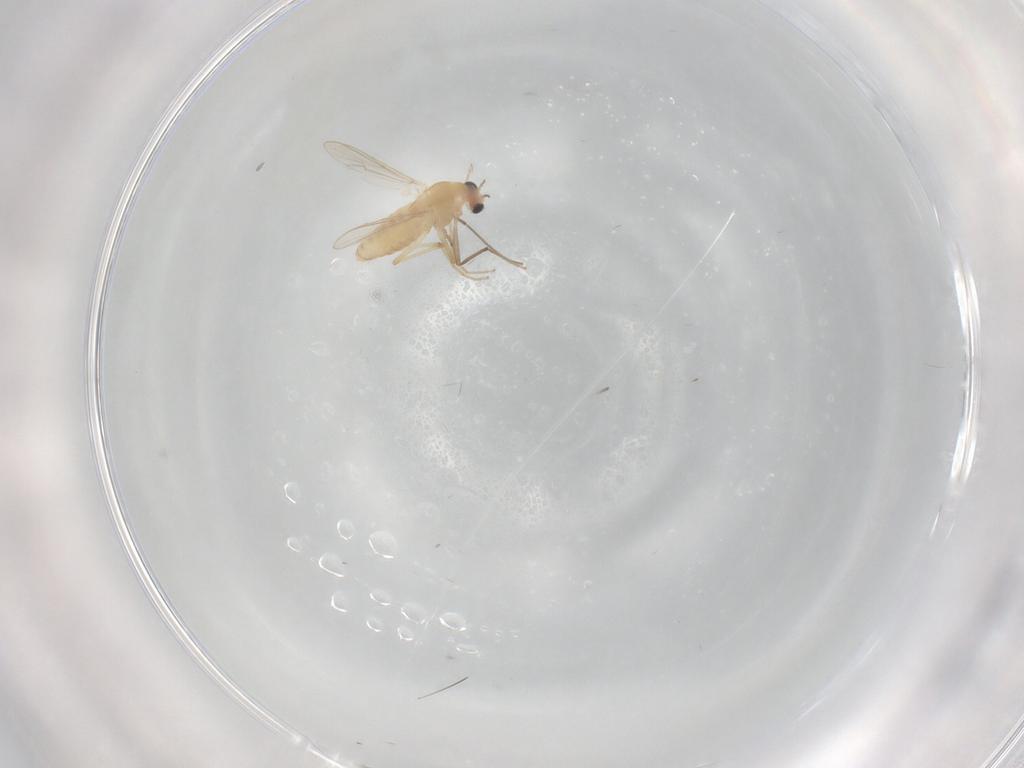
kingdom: Animalia
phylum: Arthropoda
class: Insecta
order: Diptera
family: Chironomidae
